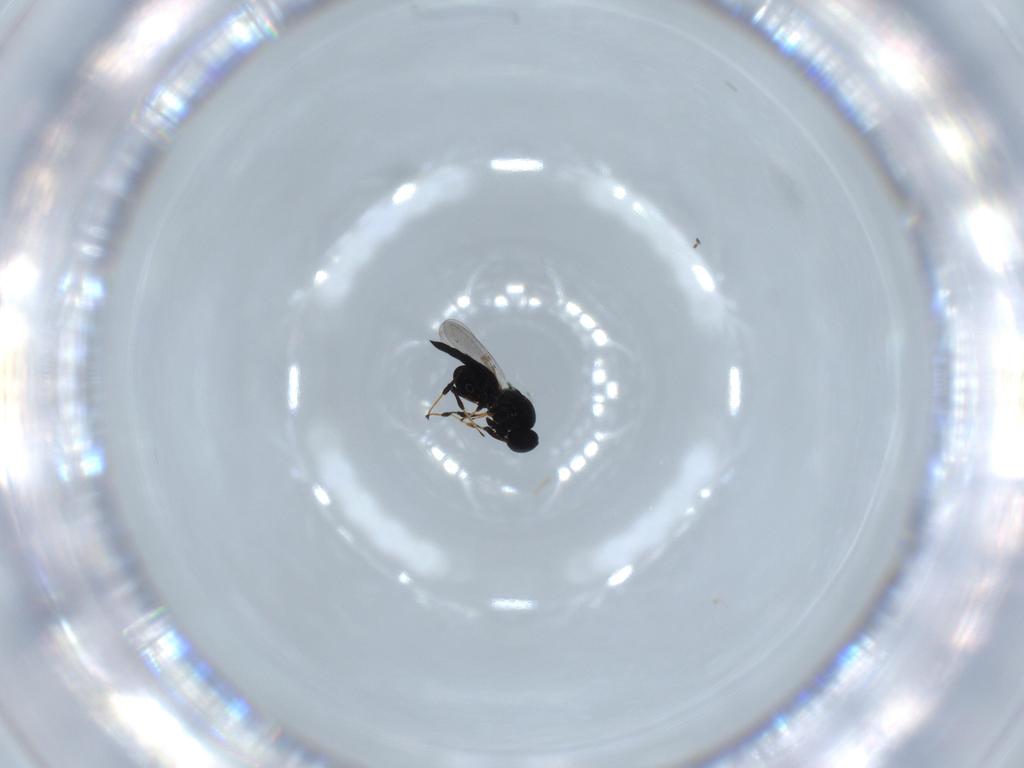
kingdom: Animalia
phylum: Arthropoda
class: Insecta
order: Hymenoptera
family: Platygastridae
